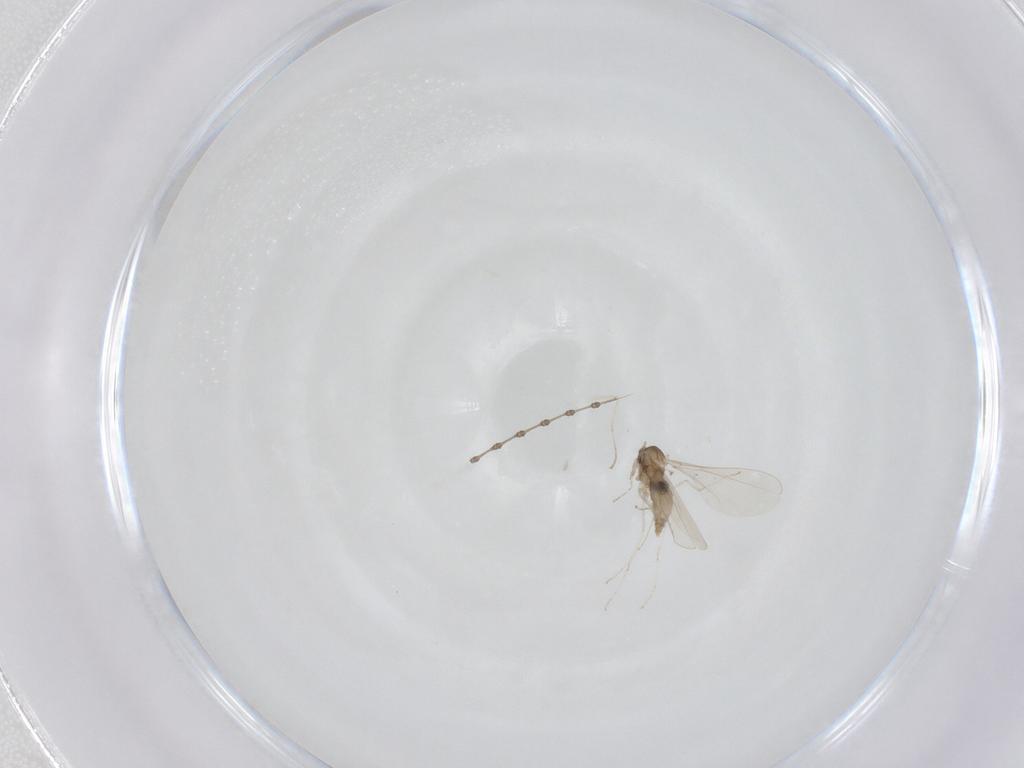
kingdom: Animalia
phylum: Arthropoda
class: Insecta
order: Diptera
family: Cecidomyiidae
